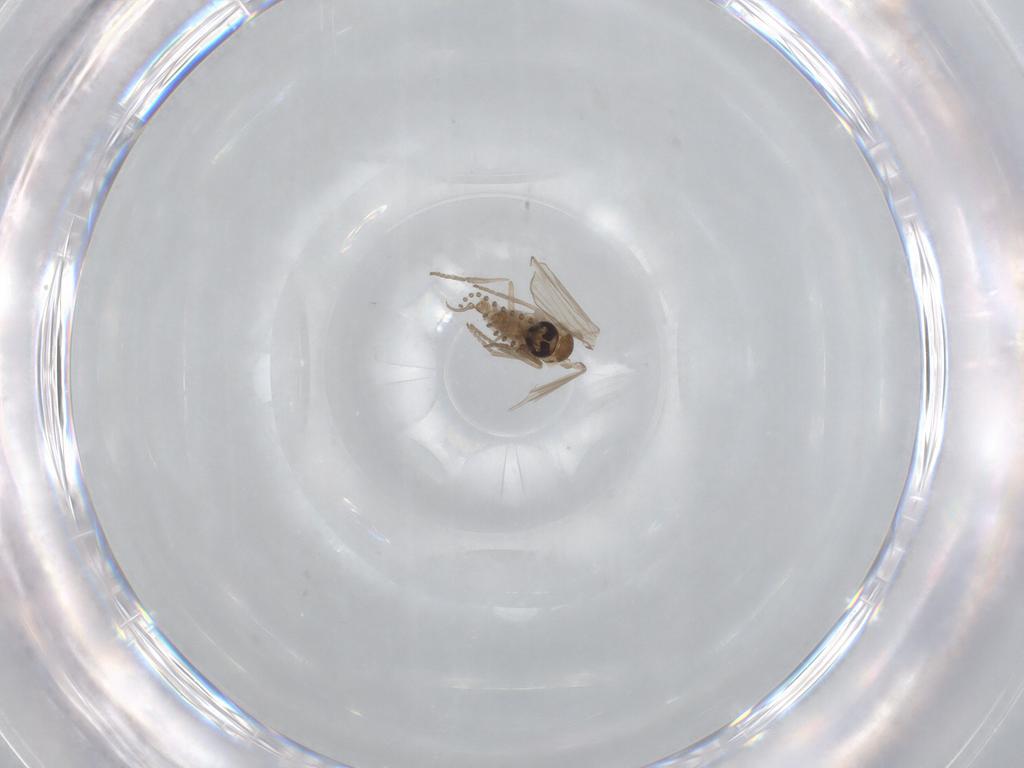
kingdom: Animalia
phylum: Arthropoda
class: Insecta
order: Diptera
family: Psychodidae
